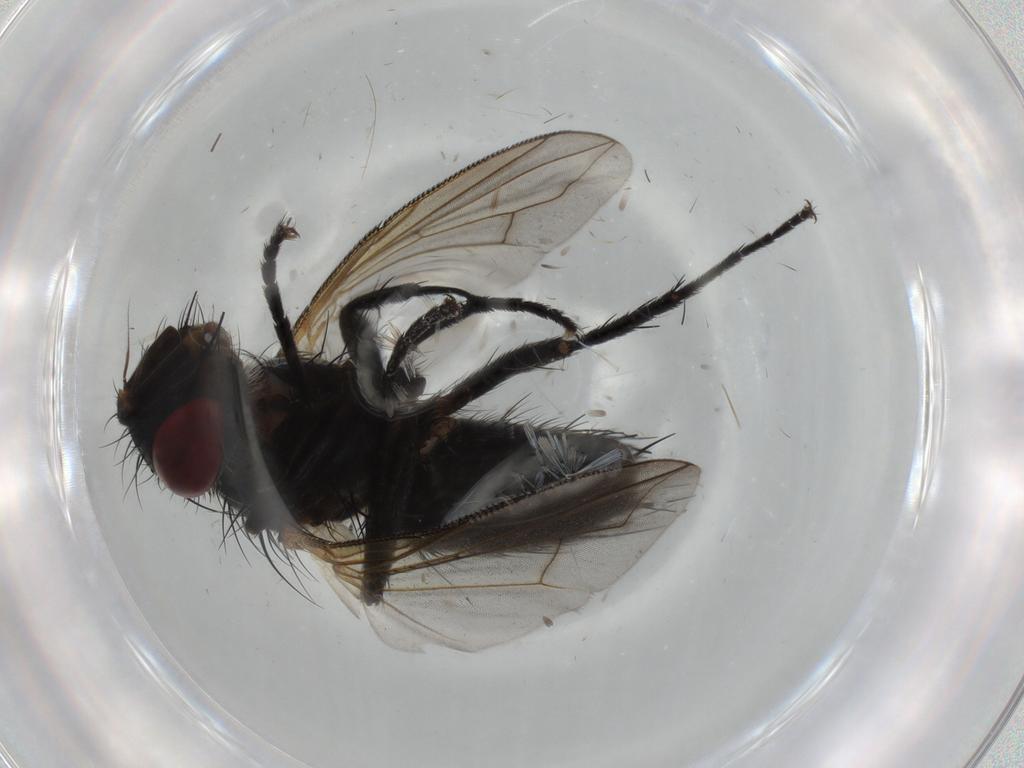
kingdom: Animalia
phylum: Arthropoda
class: Insecta
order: Diptera
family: Cecidomyiidae
